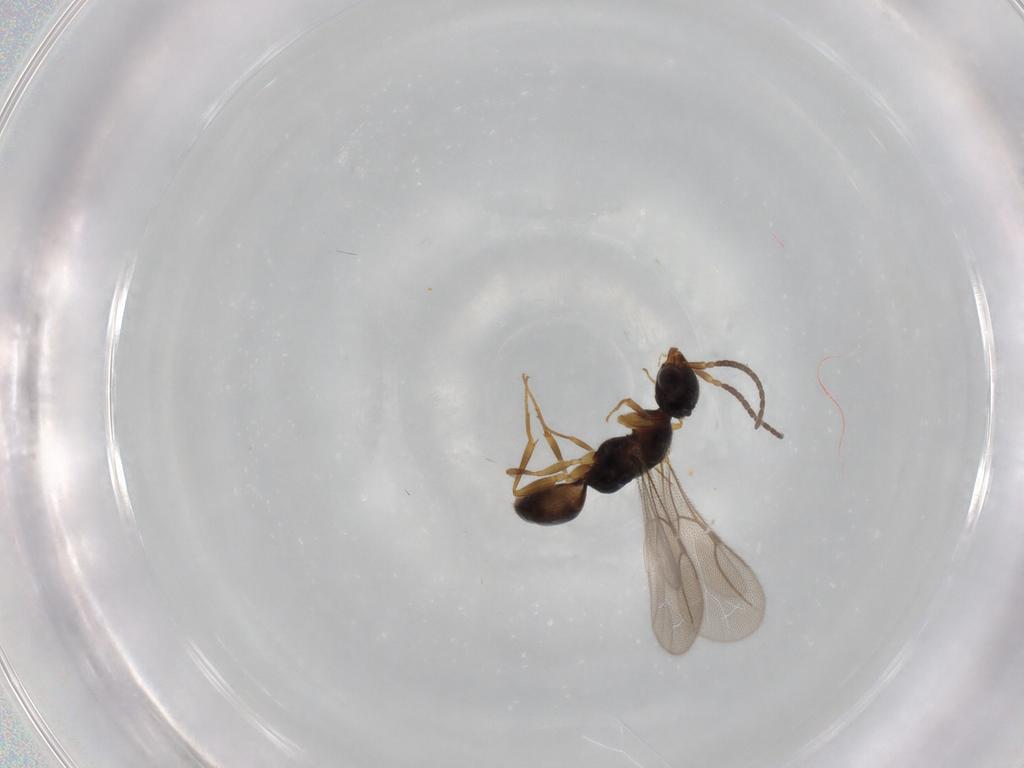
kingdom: Animalia
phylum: Arthropoda
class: Insecta
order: Hymenoptera
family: Bethylidae
